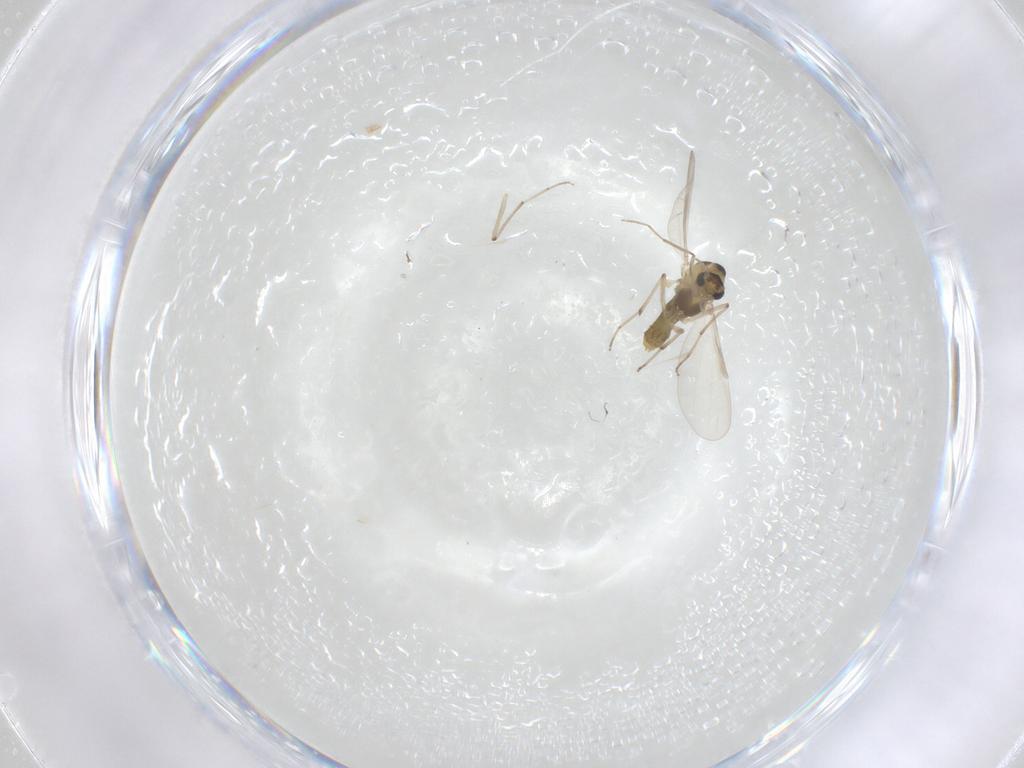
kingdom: Animalia
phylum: Arthropoda
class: Insecta
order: Diptera
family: Chironomidae
